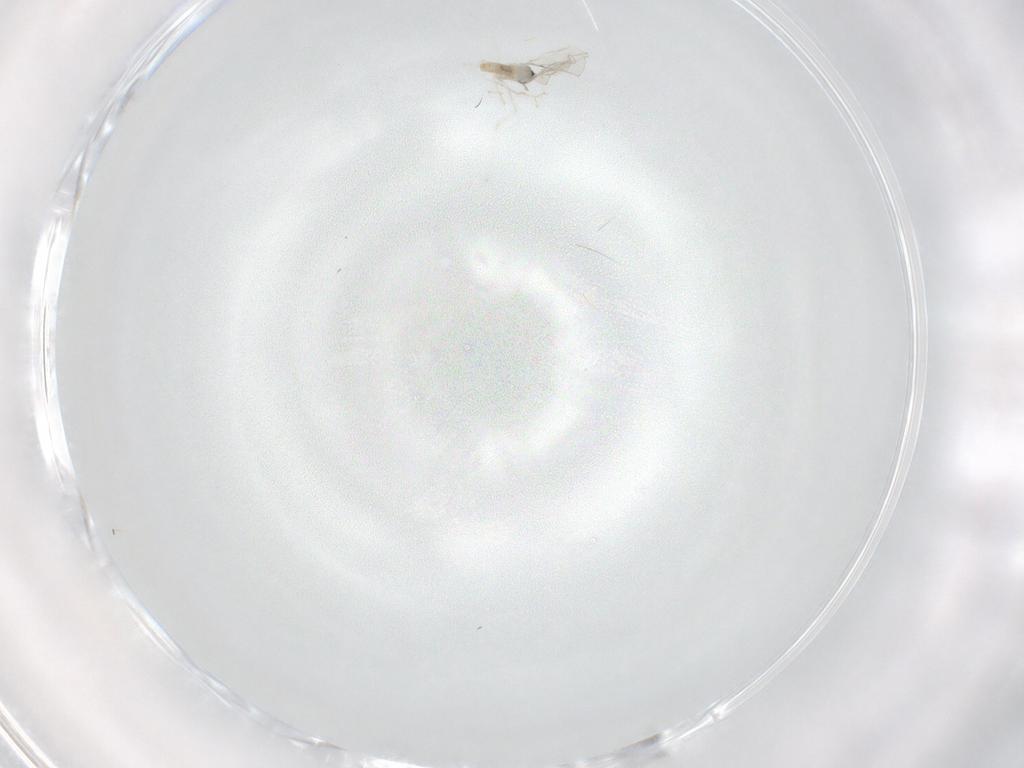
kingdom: Animalia
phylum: Arthropoda
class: Insecta
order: Diptera
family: Cecidomyiidae
